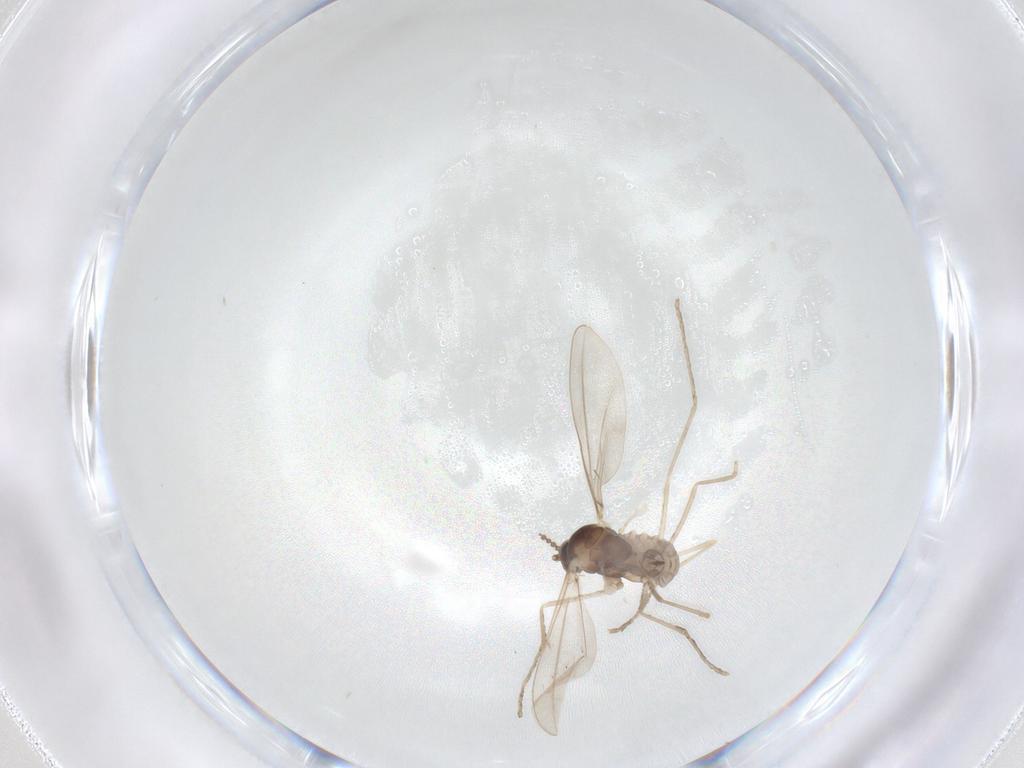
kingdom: Animalia
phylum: Arthropoda
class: Insecta
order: Diptera
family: Cecidomyiidae
